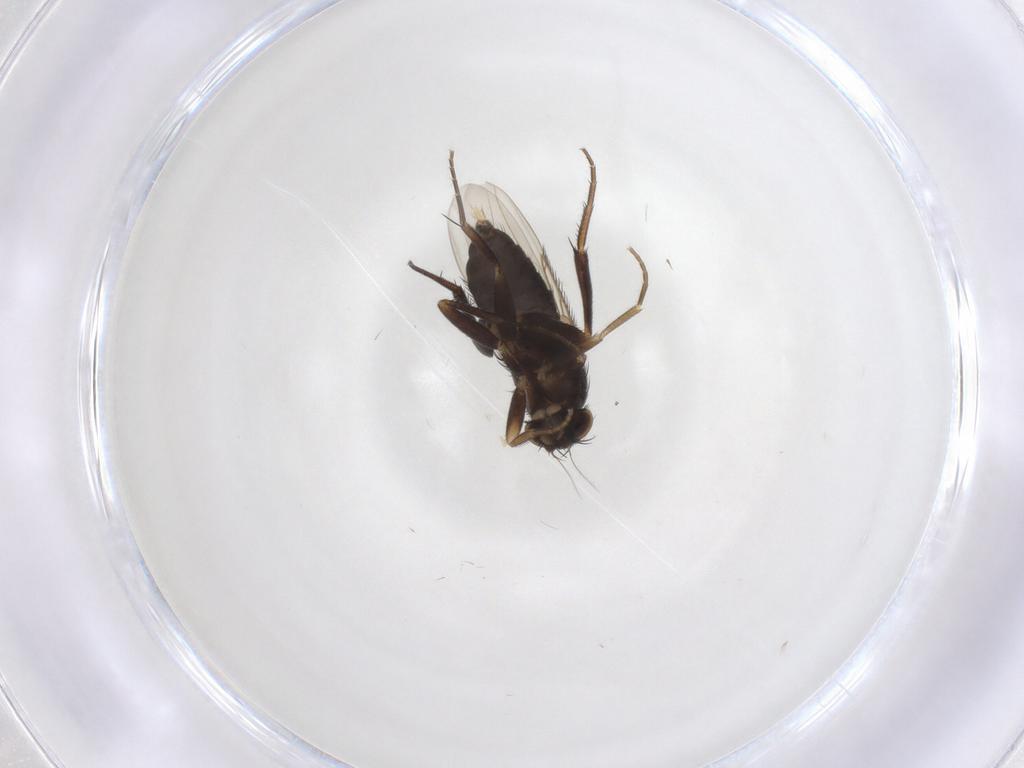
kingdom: Animalia
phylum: Arthropoda
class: Insecta
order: Diptera
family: Phoridae
